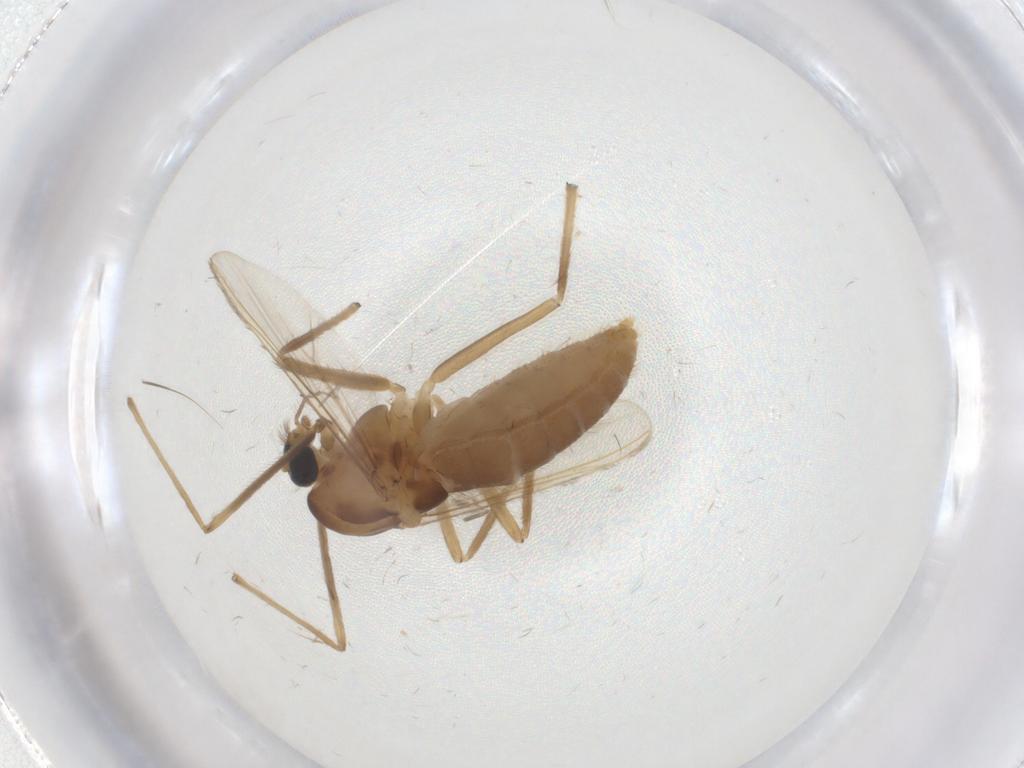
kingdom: Animalia
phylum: Arthropoda
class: Insecta
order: Diptera
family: Chironomidae
